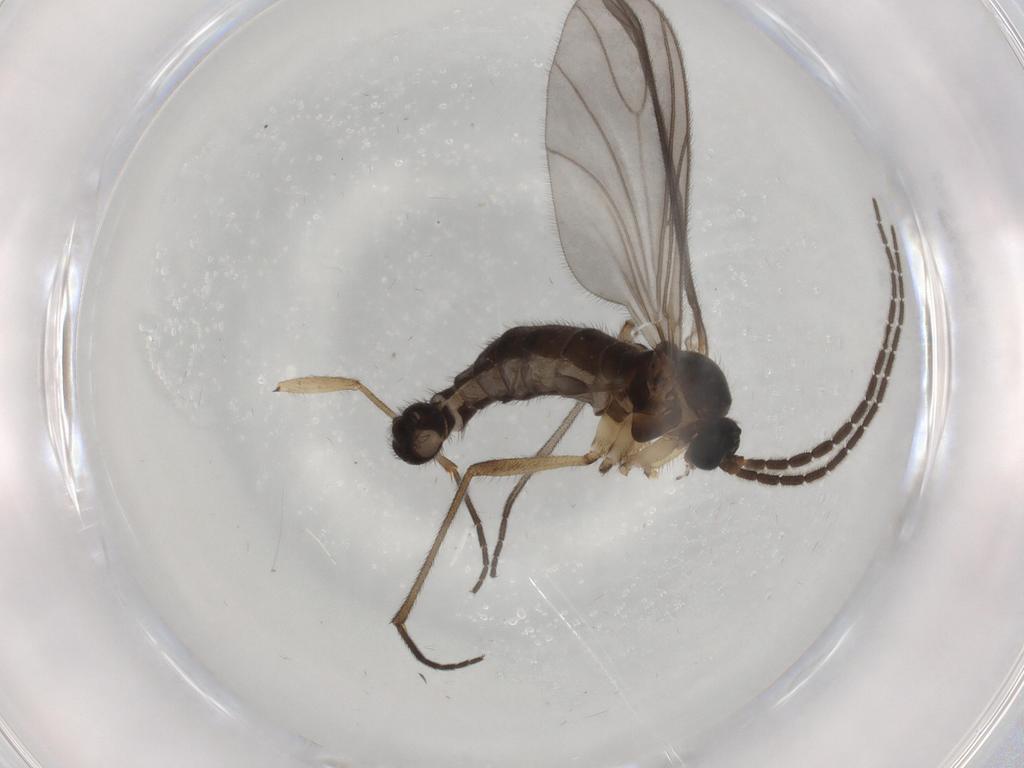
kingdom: Animalia
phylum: Arthropoda
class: Insecta
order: Diptera
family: Sciaridae
